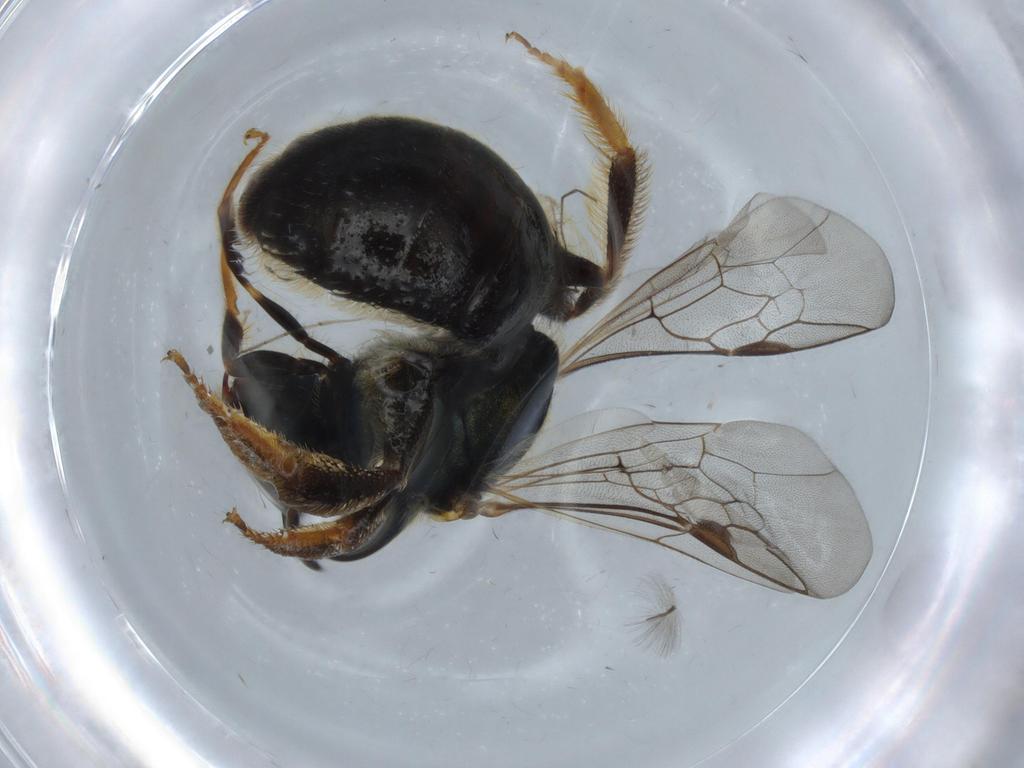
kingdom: Animalia
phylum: Arthropoda
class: Insecta
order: Hymenoptera
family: Halictidae
